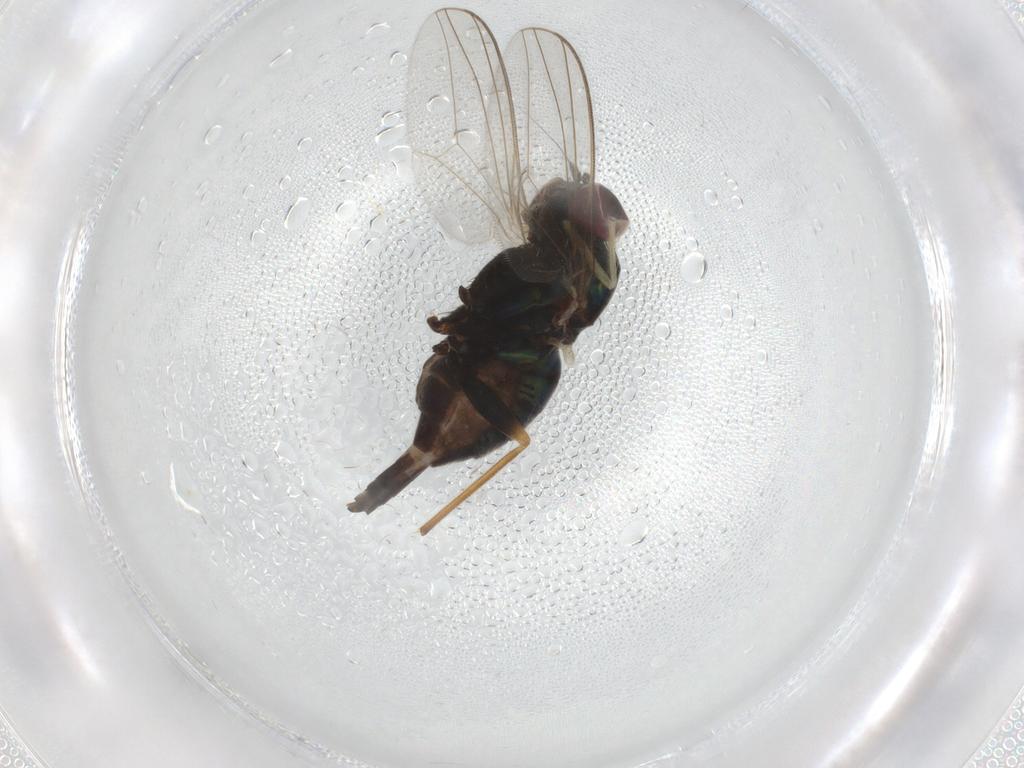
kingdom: Animalia
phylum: Arthropoda
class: Insecta
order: Diptera
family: Dolichopodidae
